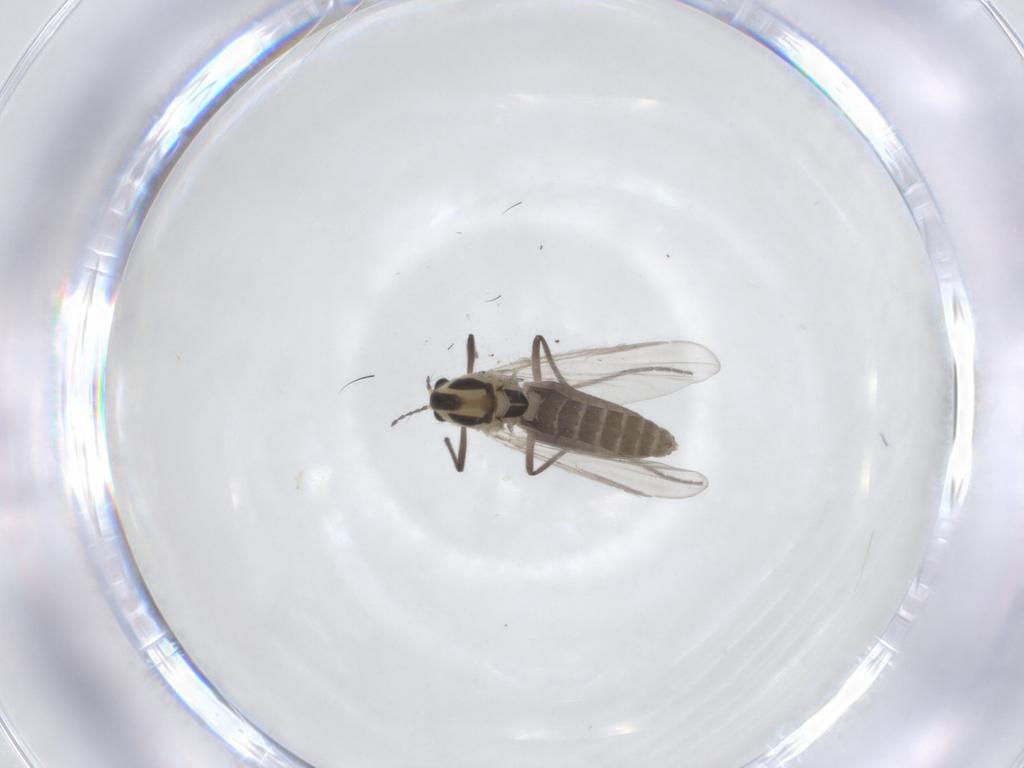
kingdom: Animalia
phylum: Arthropoda
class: Insecta
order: Diptera
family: Chironomidae
